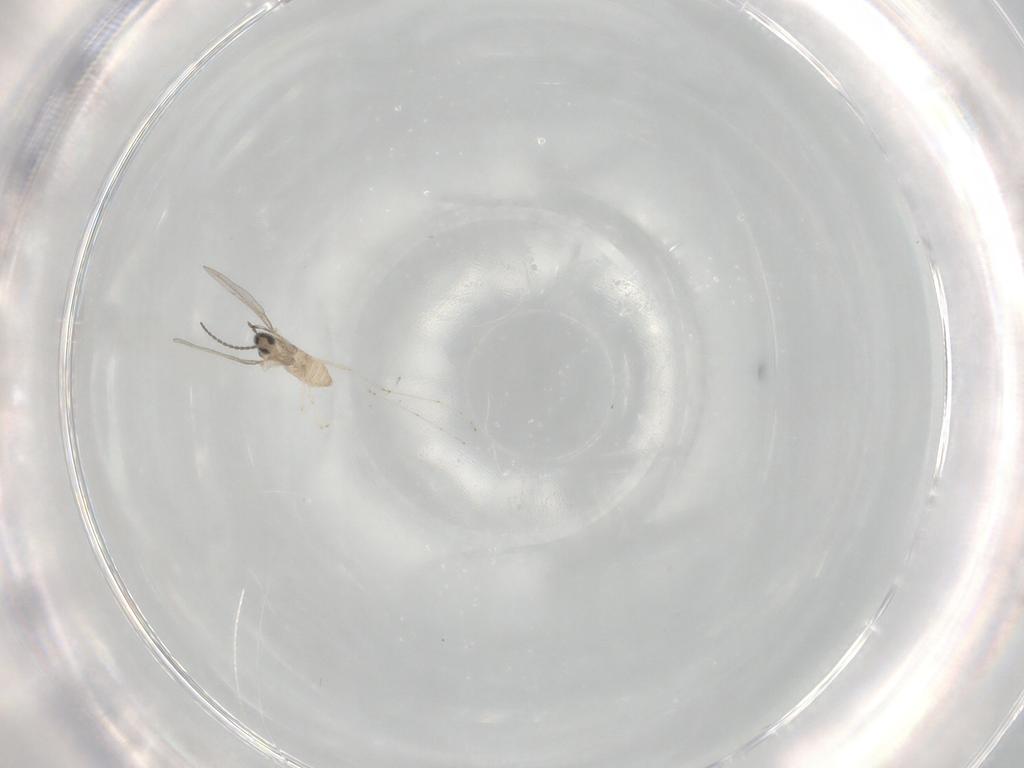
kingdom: Animalia
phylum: Arthropoda
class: Insecta
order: Diptera
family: Cecidomyiidae
